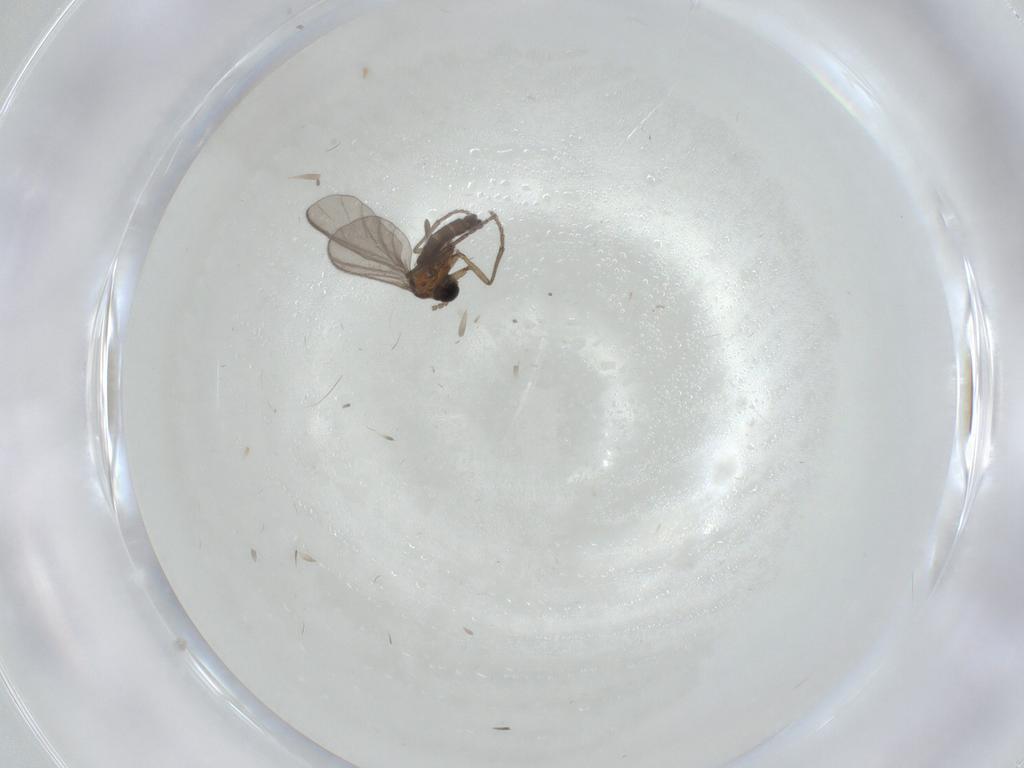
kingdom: Animalia
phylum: Arthropoda
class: Insecta
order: Diptera
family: Sciaridae
